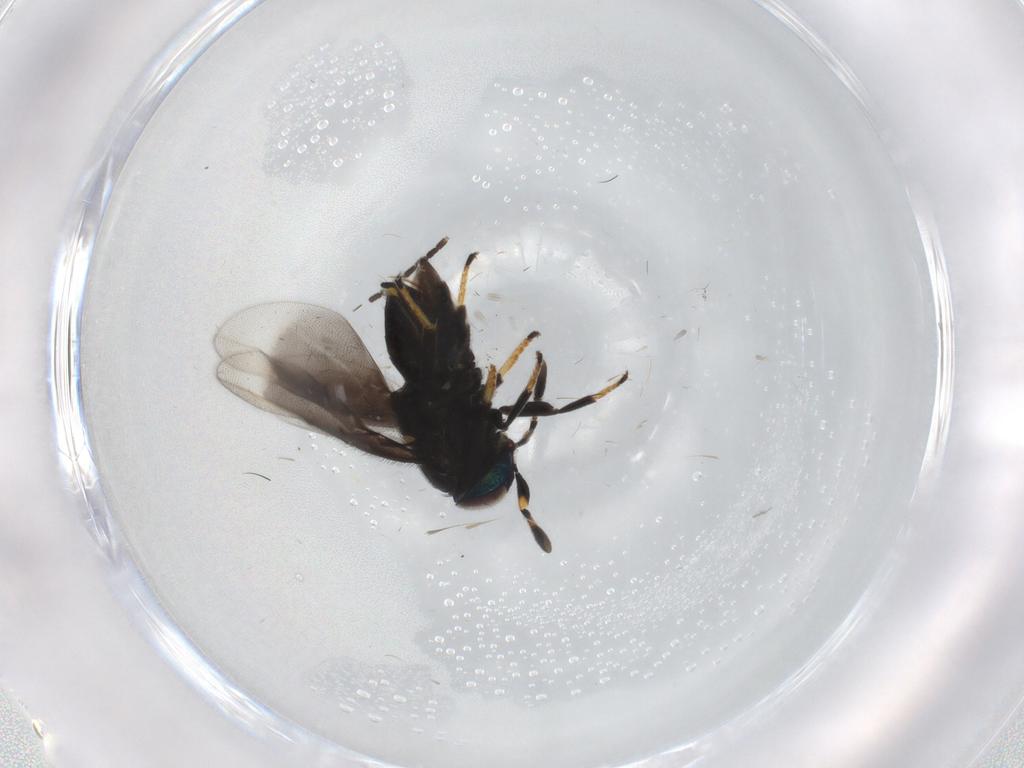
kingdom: Animalia
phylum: Arthropoda
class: Insecta
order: Hymenoptera
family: Encyrtidae
